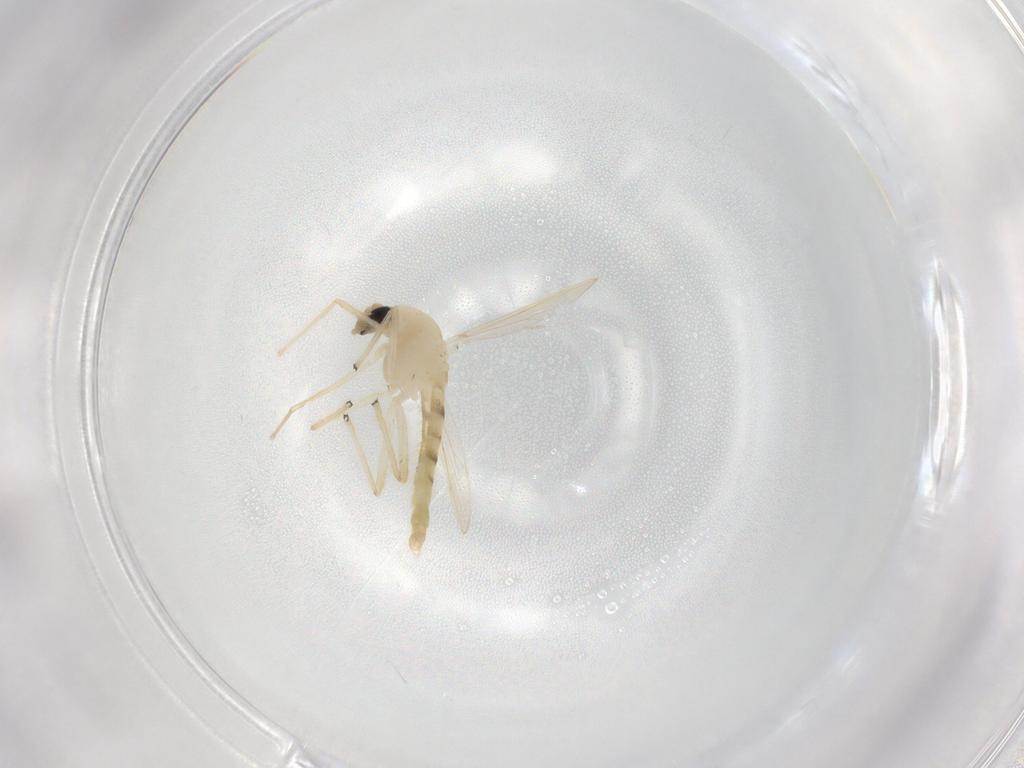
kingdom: Animalia
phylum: Arthropoda
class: Insecta
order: Diptera
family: Chironomidae
